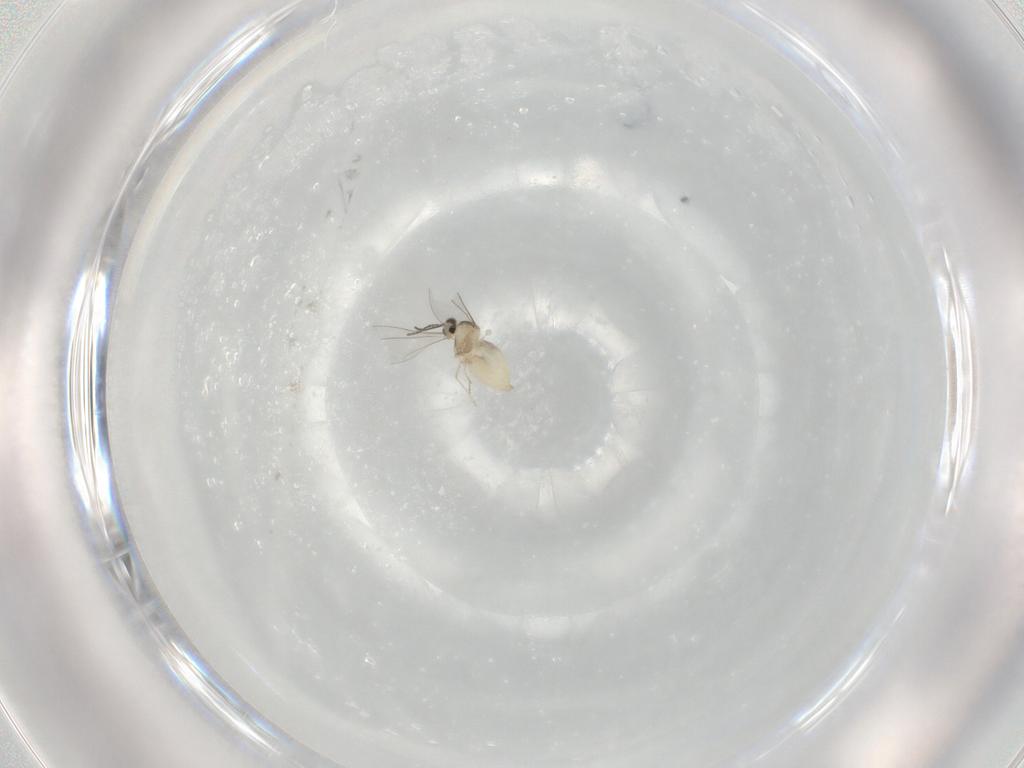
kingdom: Animalia
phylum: Arthropoda
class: Insecta
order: Diptera
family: Cecidomyiidae
